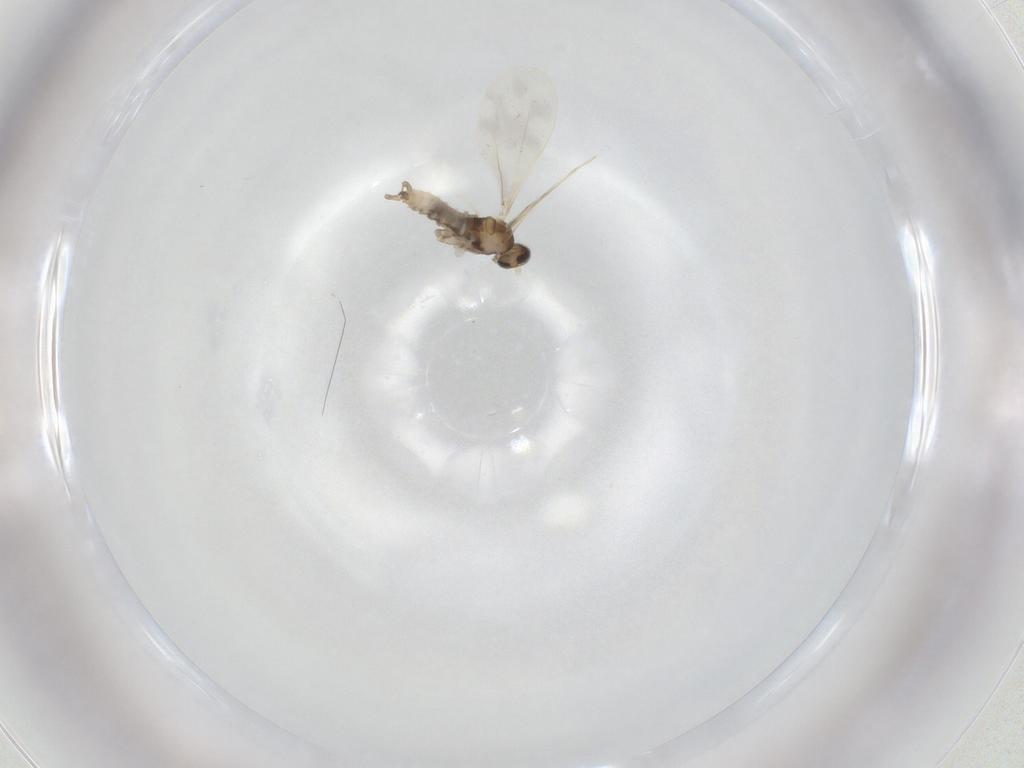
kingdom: Animalia
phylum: Arthropoda
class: Insecta
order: Diptera
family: Cecidomyiidae
